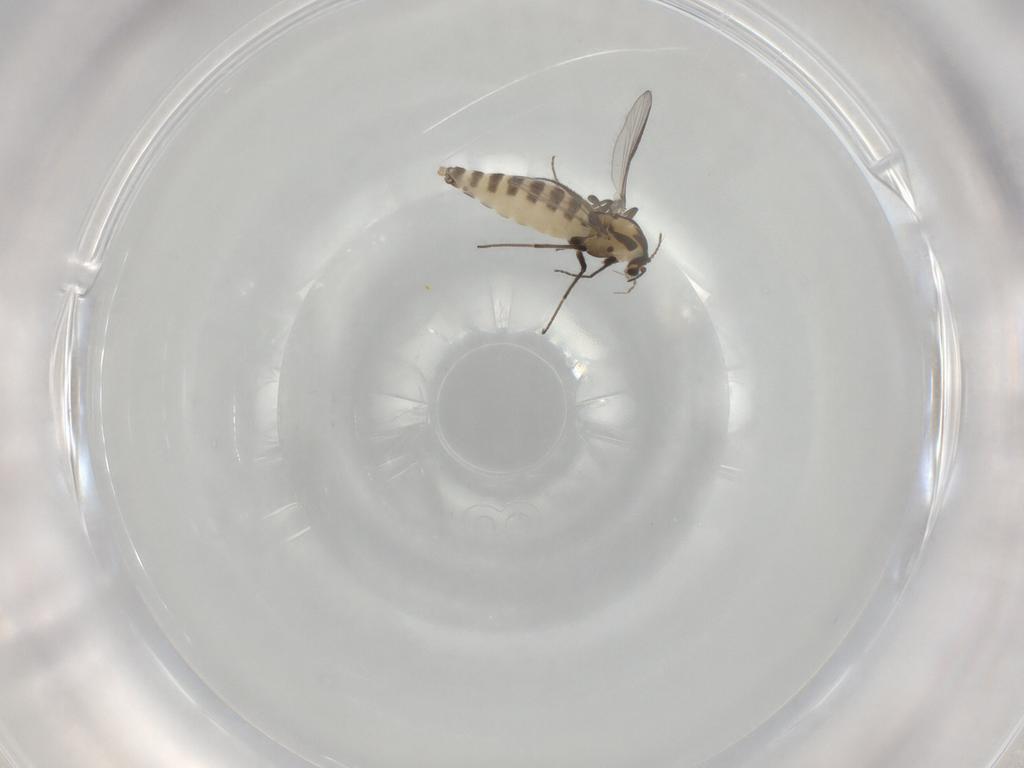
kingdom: Animalia
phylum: Arthropoda
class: Insecta
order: Diptera
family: Chironomidae
